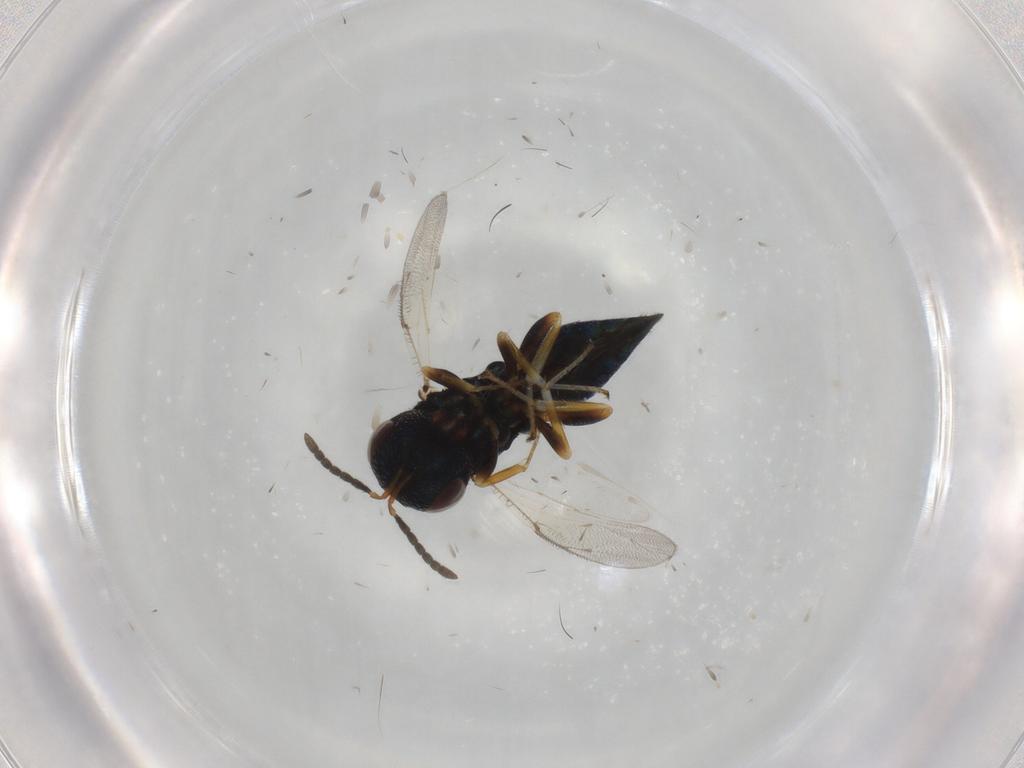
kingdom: Animalia
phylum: Arthropoda
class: Insecta
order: Hymenoptera
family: Pteromalidae
